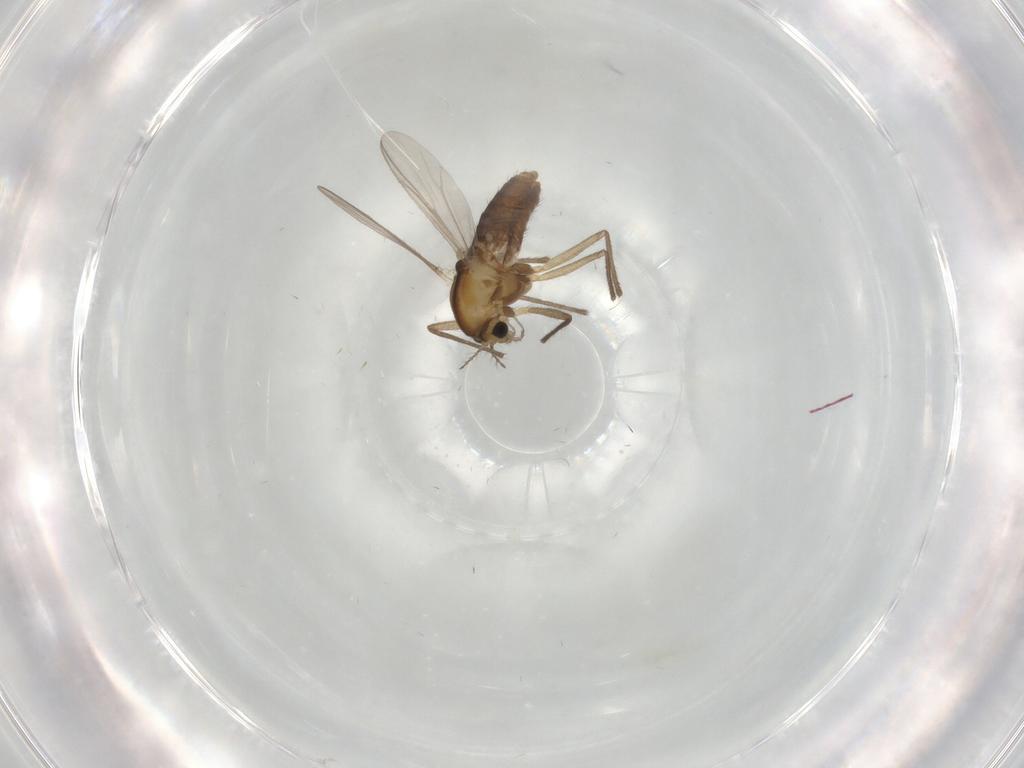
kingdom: Animalia
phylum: Arthropoda
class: Insecta
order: Diptera
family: Chironomidae
